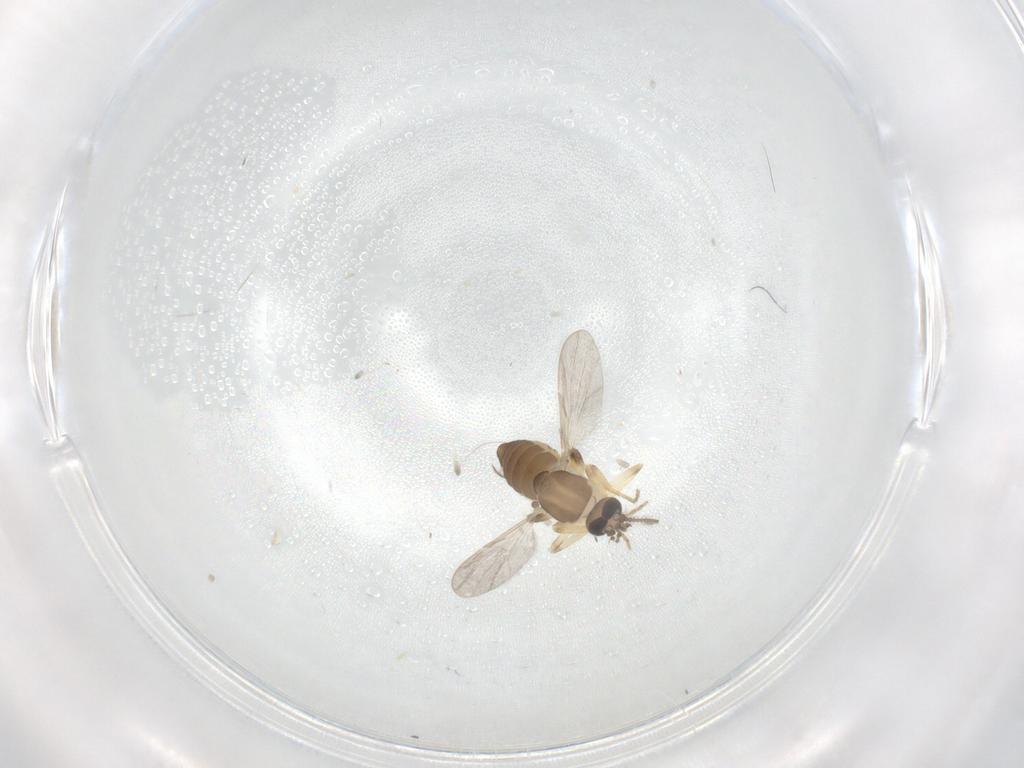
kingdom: Animalia
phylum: Arthropoda
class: Insecta
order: Diptera
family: Ceratopogonidae
